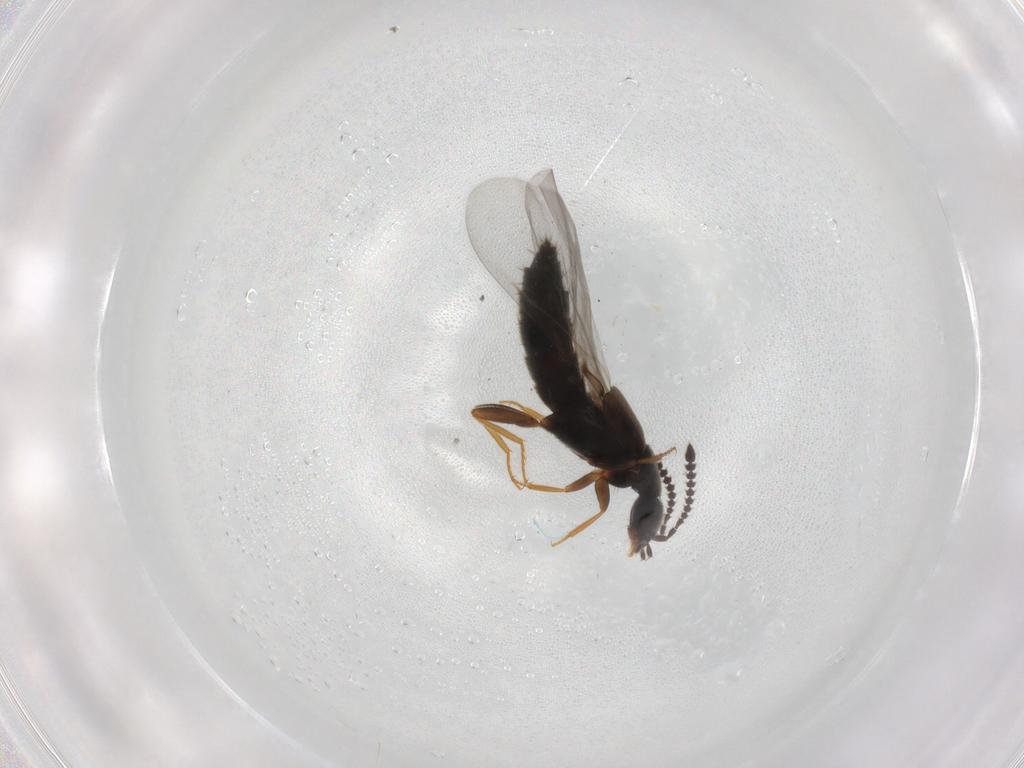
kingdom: Animalia
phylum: Arthropoda
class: Insecta
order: Coleoptera
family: Staphylinidae
